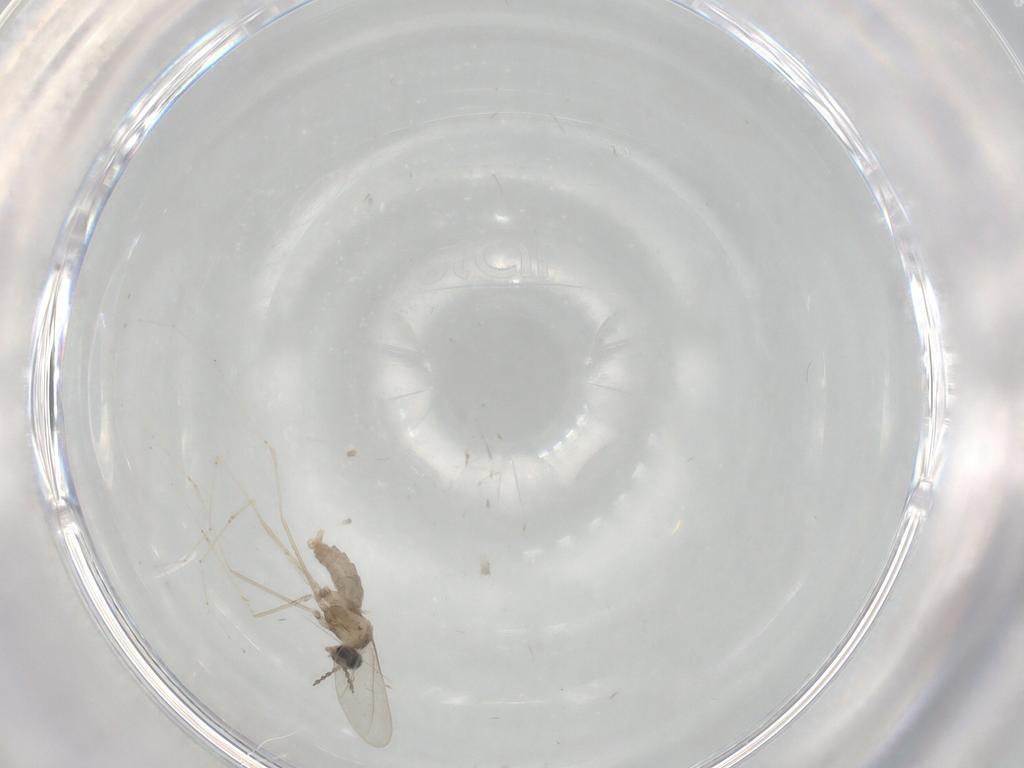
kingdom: Animalia
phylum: Arthropoda
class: Insecta
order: Diptera
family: Cecidomyiidae
